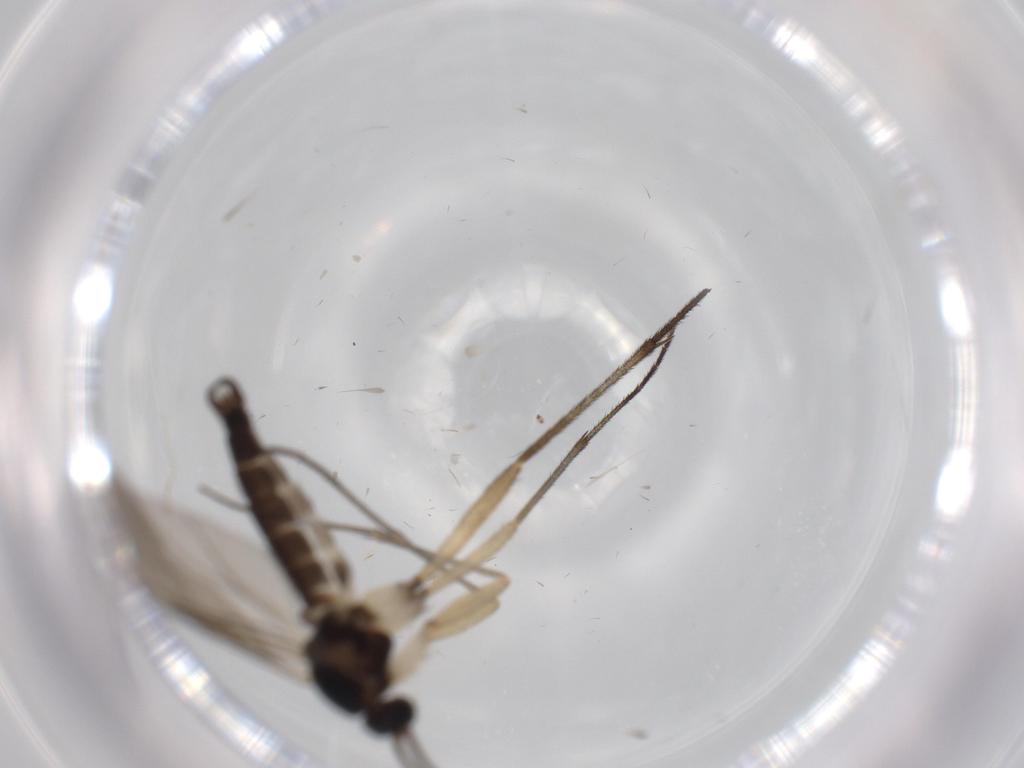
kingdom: Animalia
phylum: Arthropoda
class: Insecta
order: Diptera
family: Sciaridae
